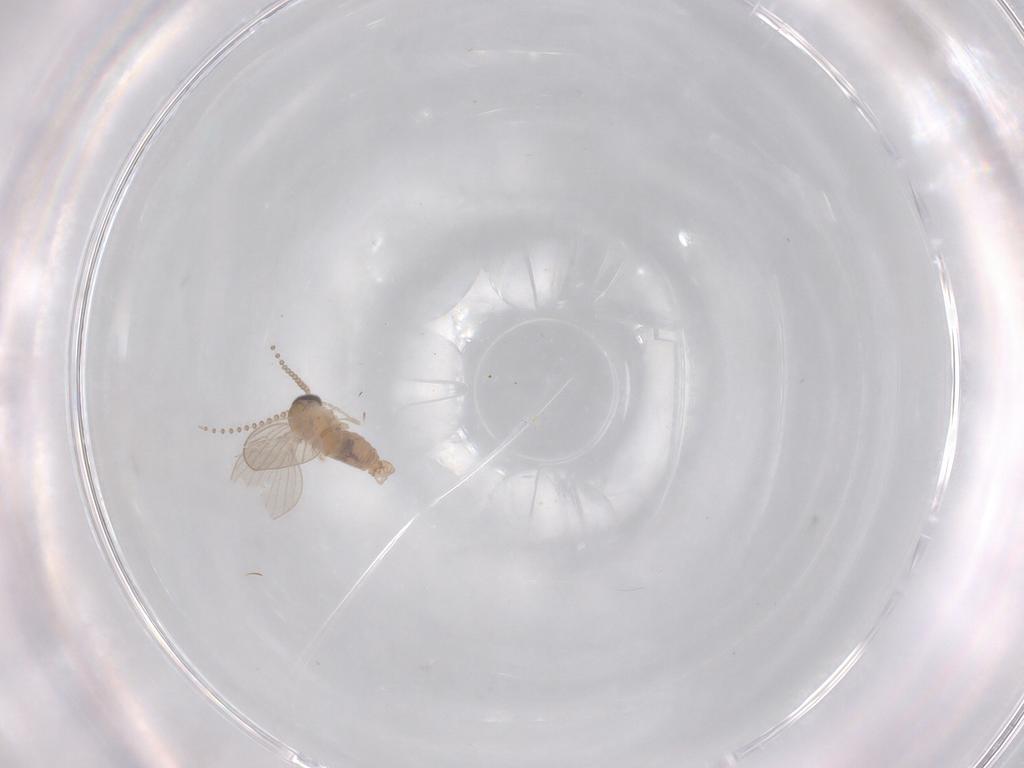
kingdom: Animalia
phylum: Arthropoda
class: Insecta
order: Diptera
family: Psychodidae
